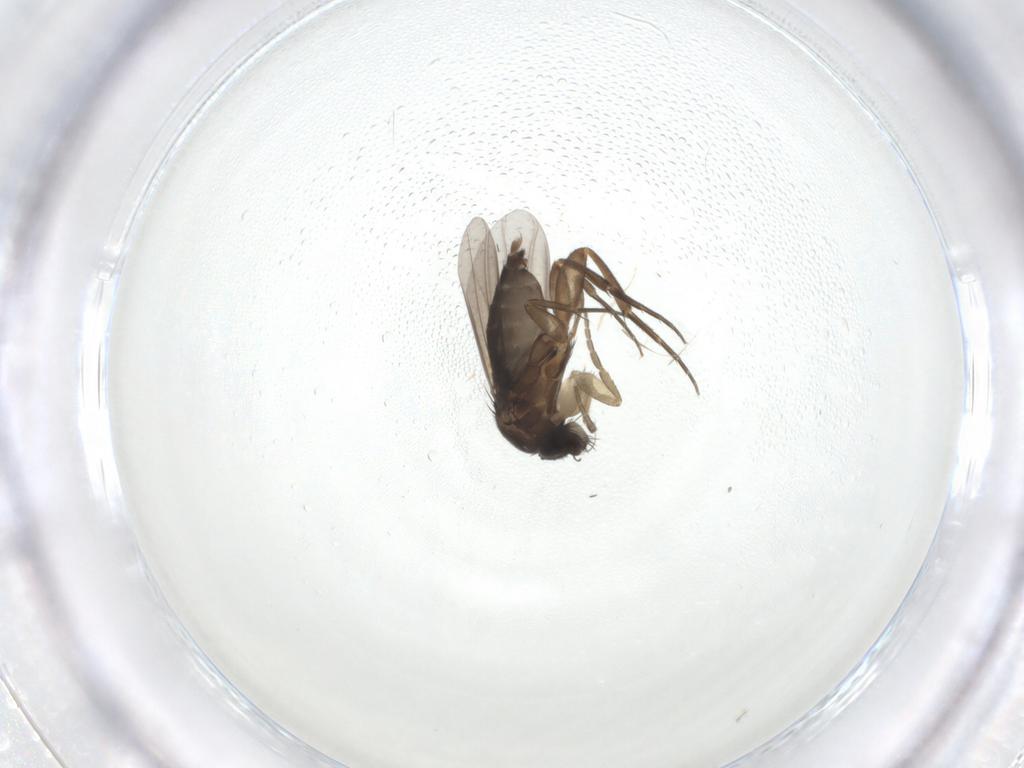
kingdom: Animalia
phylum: Arthropoda
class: Insecta
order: Diptera
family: Phoridae
